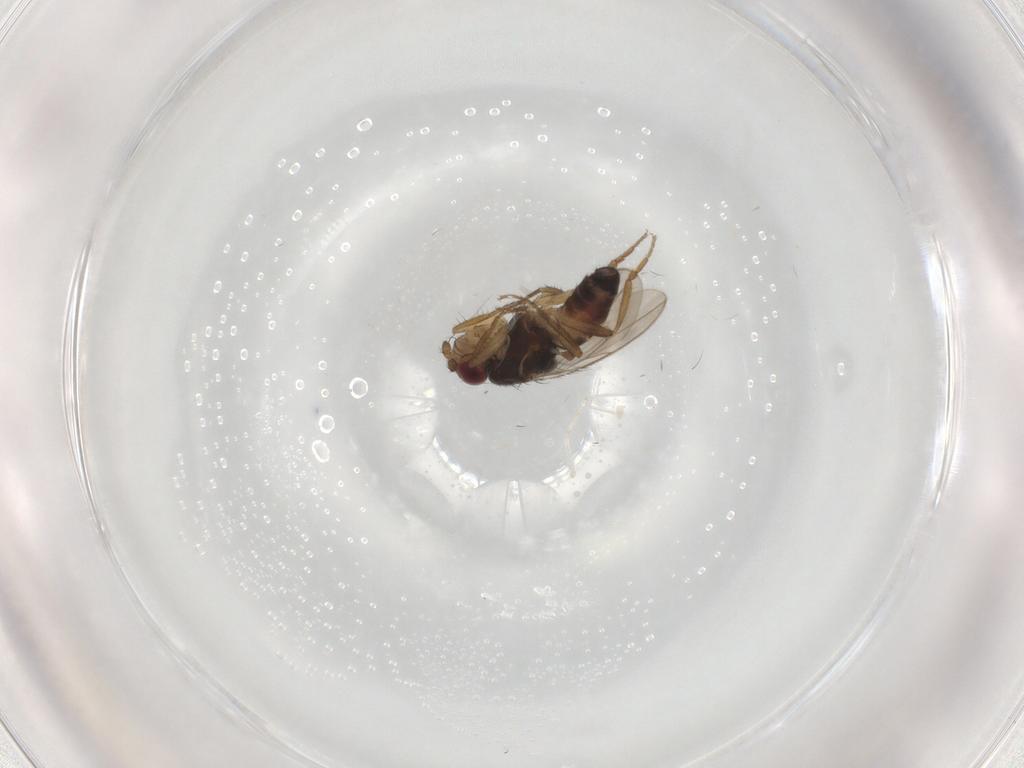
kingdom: Animalia
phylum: Arthropoda
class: Insecta
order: Diptera
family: Sphaeroceridae
